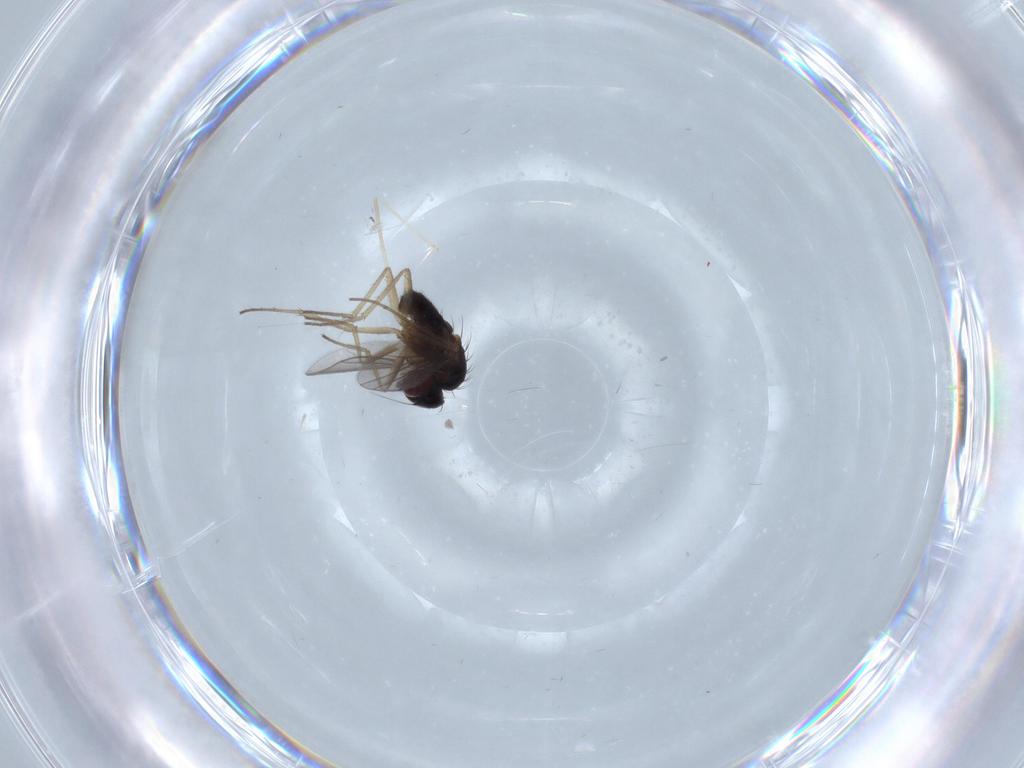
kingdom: Animalia
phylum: Arthropoda
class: Insecta
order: Diptera
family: Dolichopodidae
